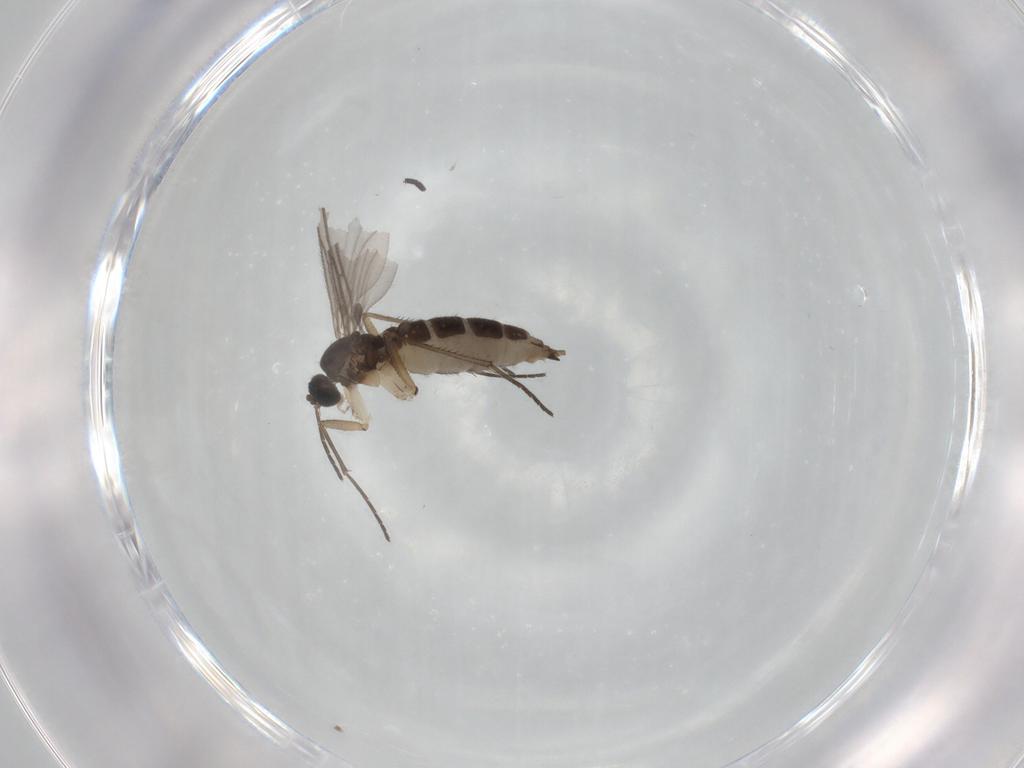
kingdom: Animalia
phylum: Arthropoda
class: Insecta
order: Diptera
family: Sciaridae
